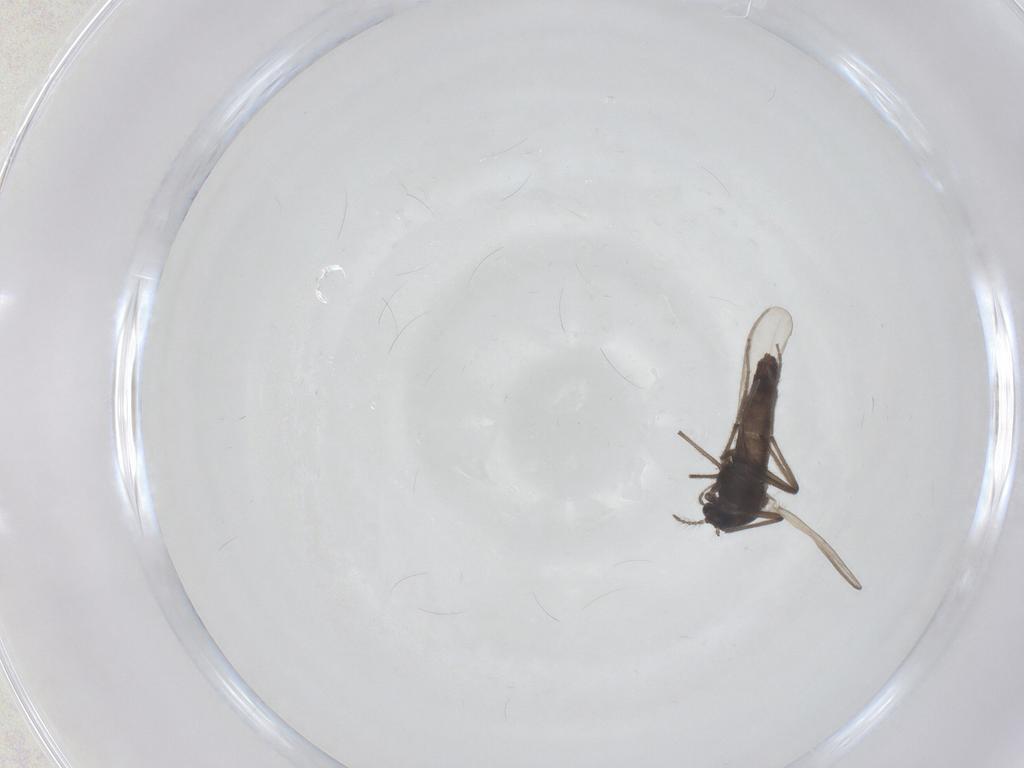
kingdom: Animalia
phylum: Arthropoda
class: Insecta
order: Diptera
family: Chironomidae
